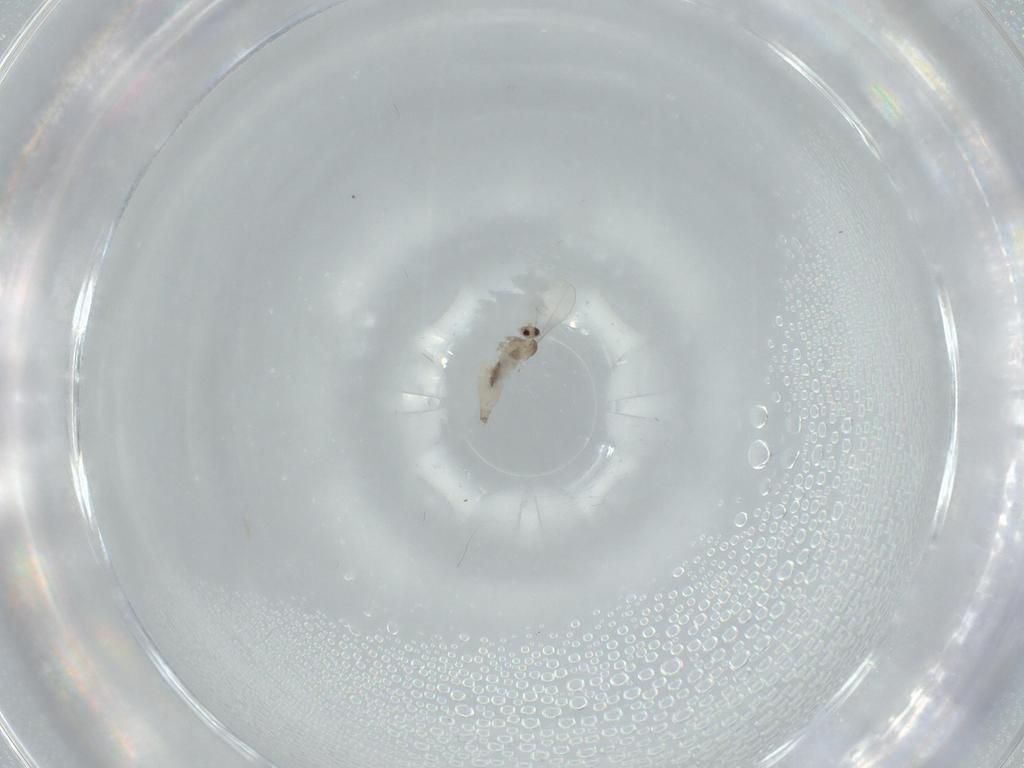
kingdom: Animalia
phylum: Arthropoda
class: Insecta
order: Diptera
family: Cecidomyiidae
